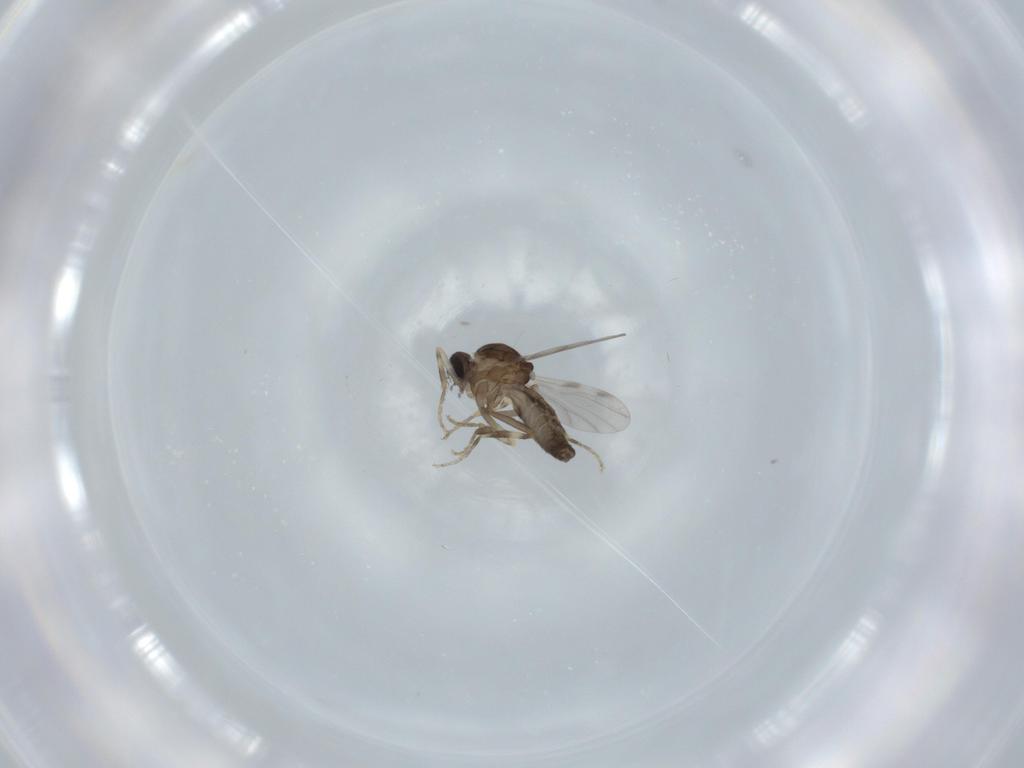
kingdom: Animalia
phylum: Arthropoda
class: Insecta
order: Diptera
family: Ceratopogonidae
